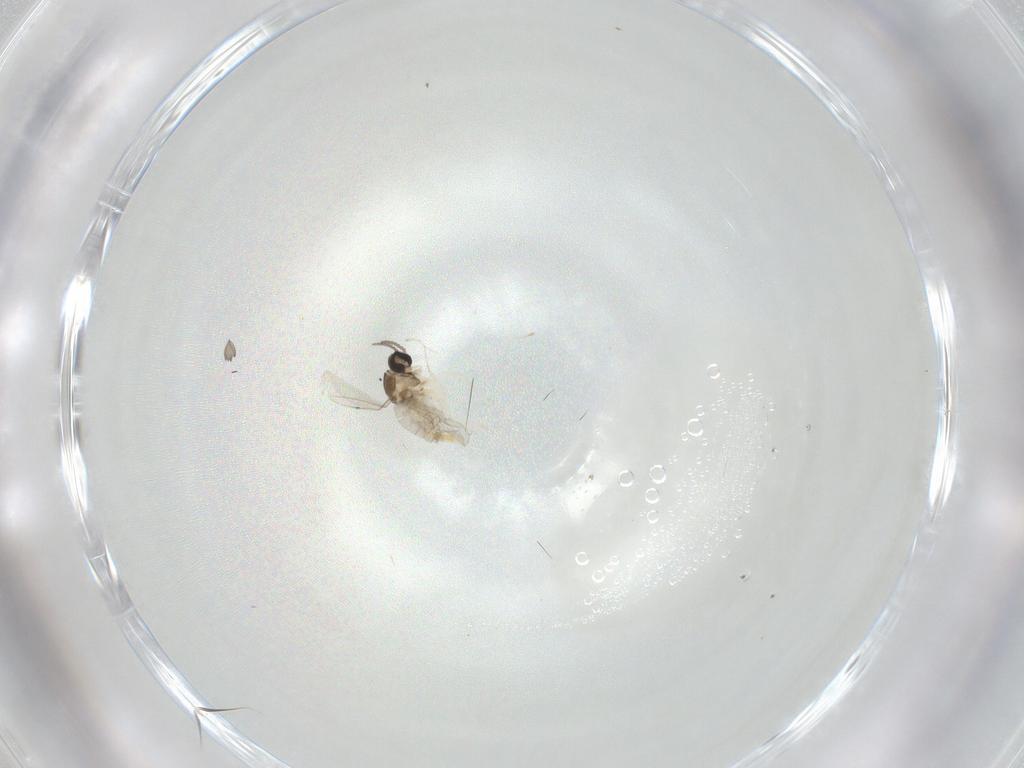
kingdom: Animalia
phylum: Arthropoda
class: Insecta
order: Diptera
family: Cecidomyiidae
